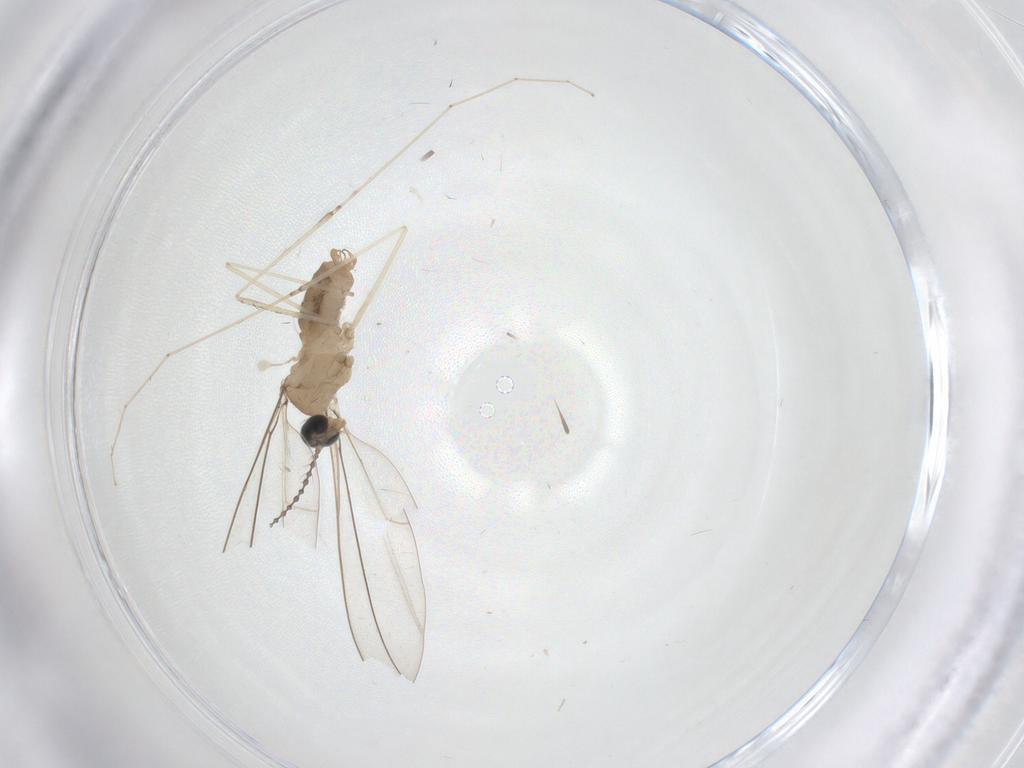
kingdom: Animalia
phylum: Arthropoda
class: Insecta
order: Diptera
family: Cecidomyiidae
